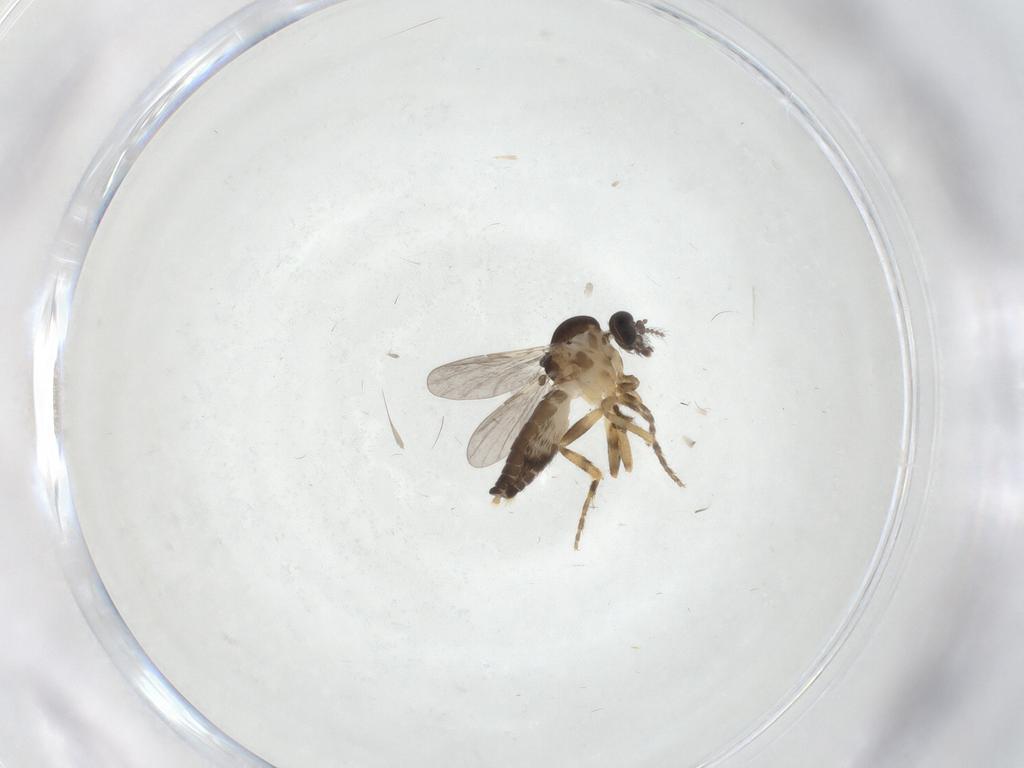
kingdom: Animalia
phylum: Arthropoda
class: Insecta
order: Diptera
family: Ceratopogonidae
